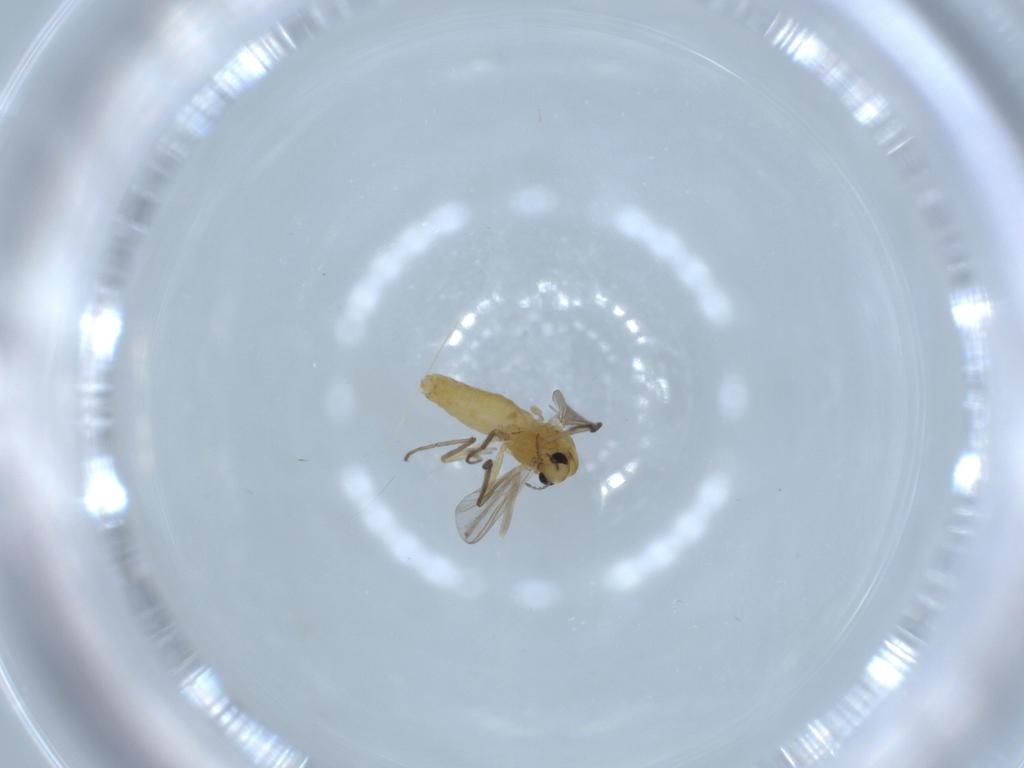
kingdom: Animalia
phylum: Arthropoda
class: Insecta
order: Diptera
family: Chironomidae
